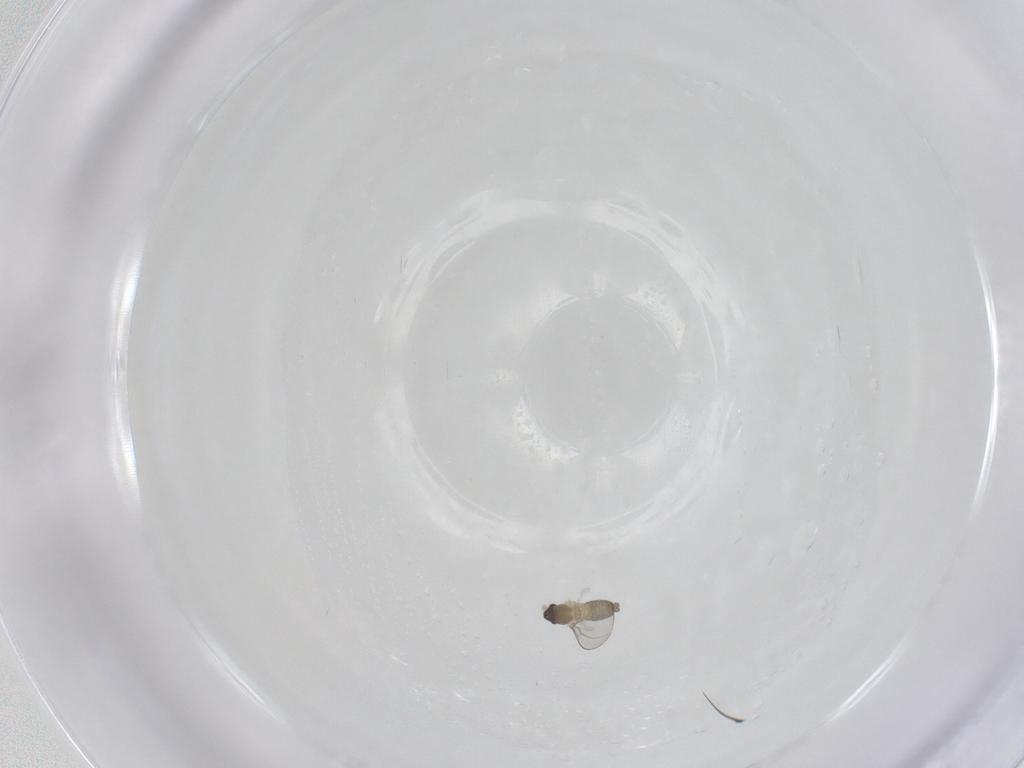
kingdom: Animalia
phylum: Arthropoda
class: Insecta
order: Diptera
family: Cecidomyiidae
